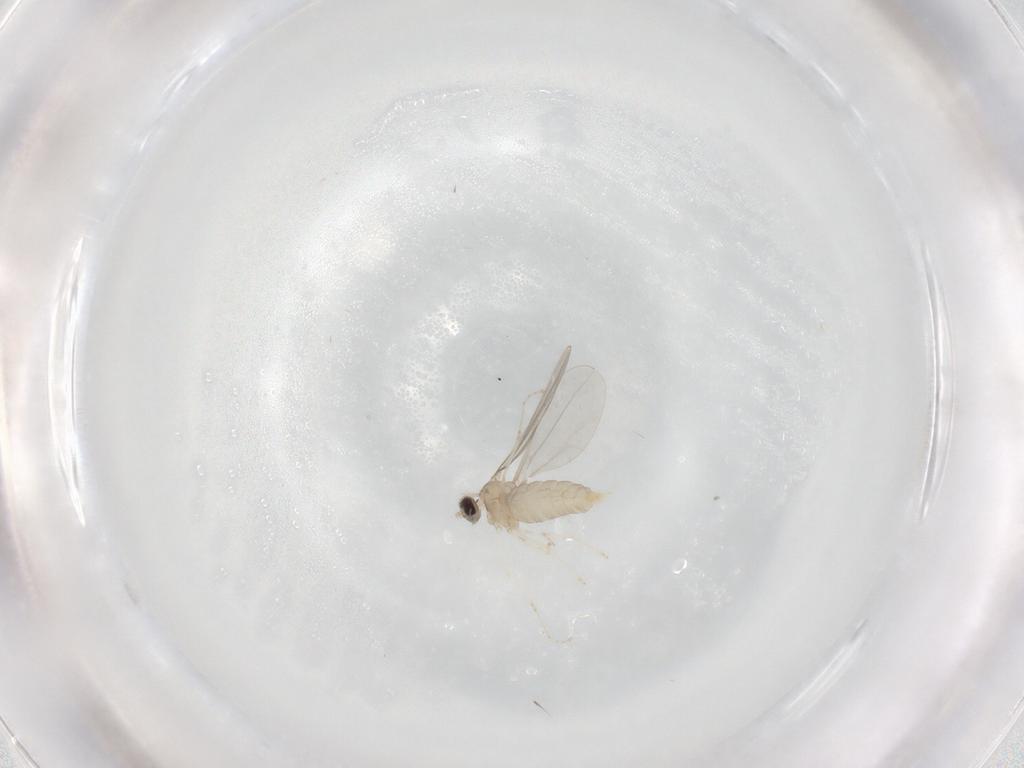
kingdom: Animalia
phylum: Arthropoda
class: Insecta
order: Diptera
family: Cecidomyiidae
